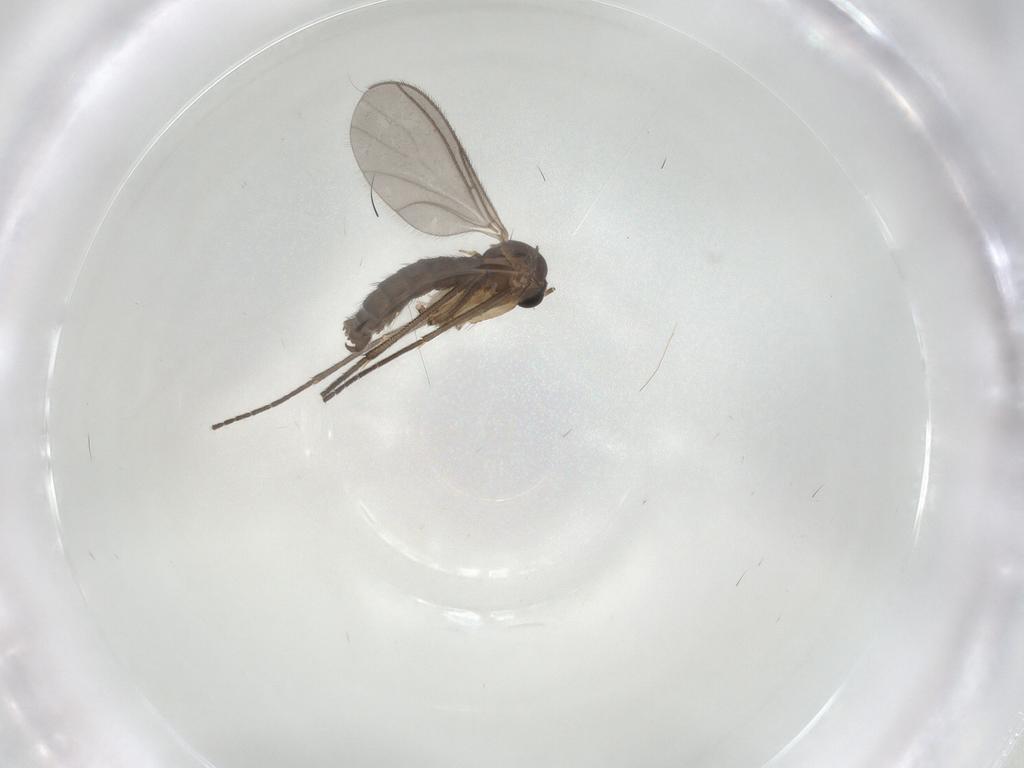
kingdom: Animalia
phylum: Arthropoda
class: Insecta
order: Diptera
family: Sciaridae
